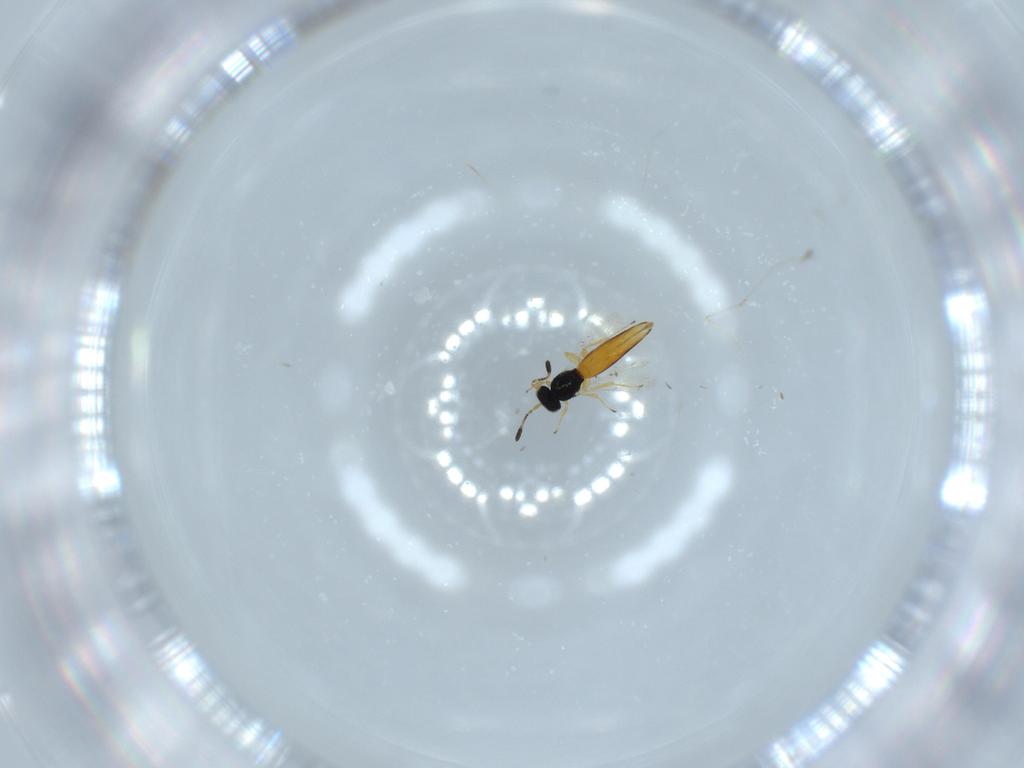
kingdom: Animalia
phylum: Arthropoda
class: Insecta
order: Hymenoptera
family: Scelionidae
